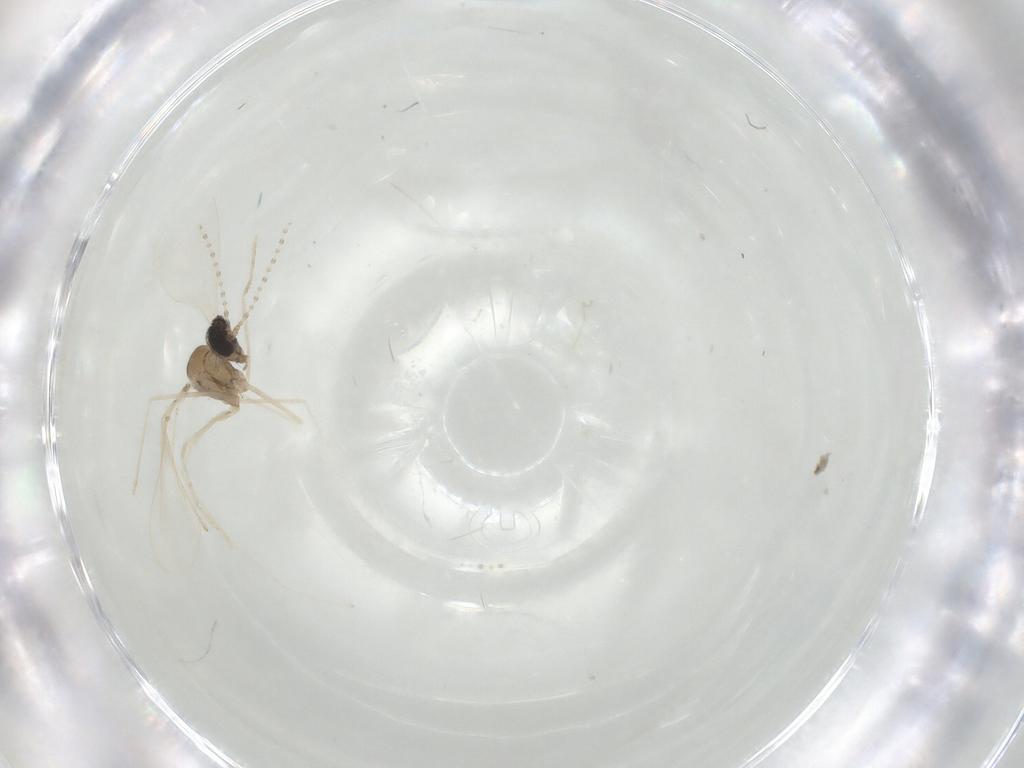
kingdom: Animalia
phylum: Arthropoda
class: Insecta
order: Diptera
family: Cecidomyiidae
